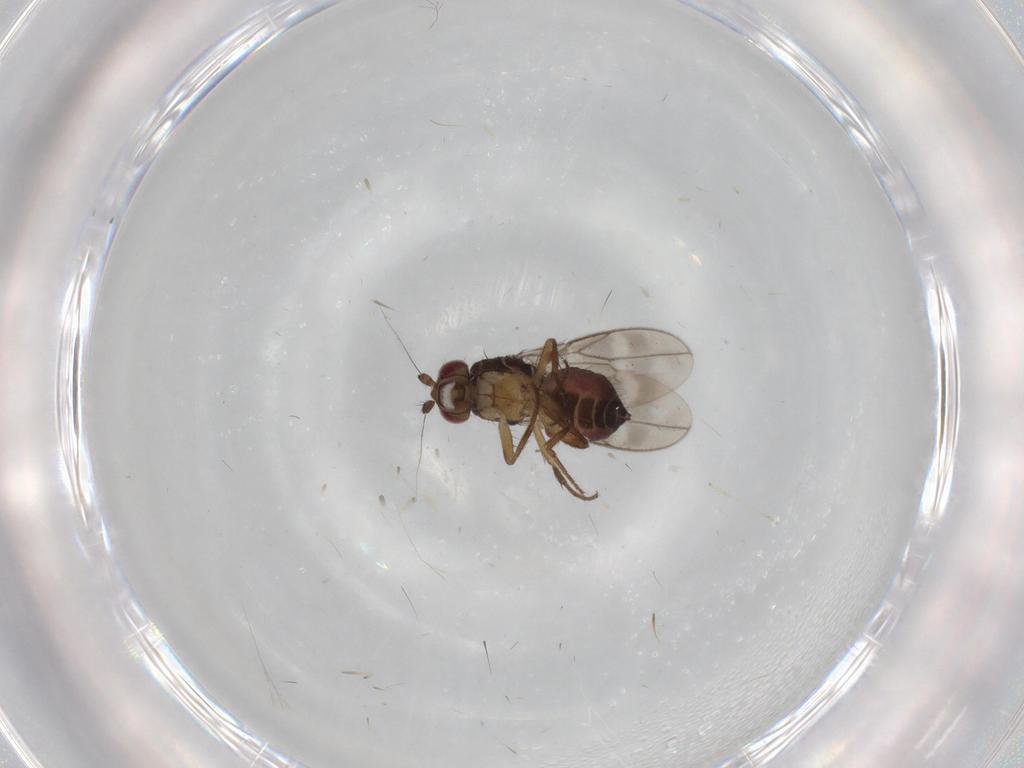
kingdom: Animalia
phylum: Arthropoda
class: Insecta
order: Diptera
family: Sphaeroceridae
